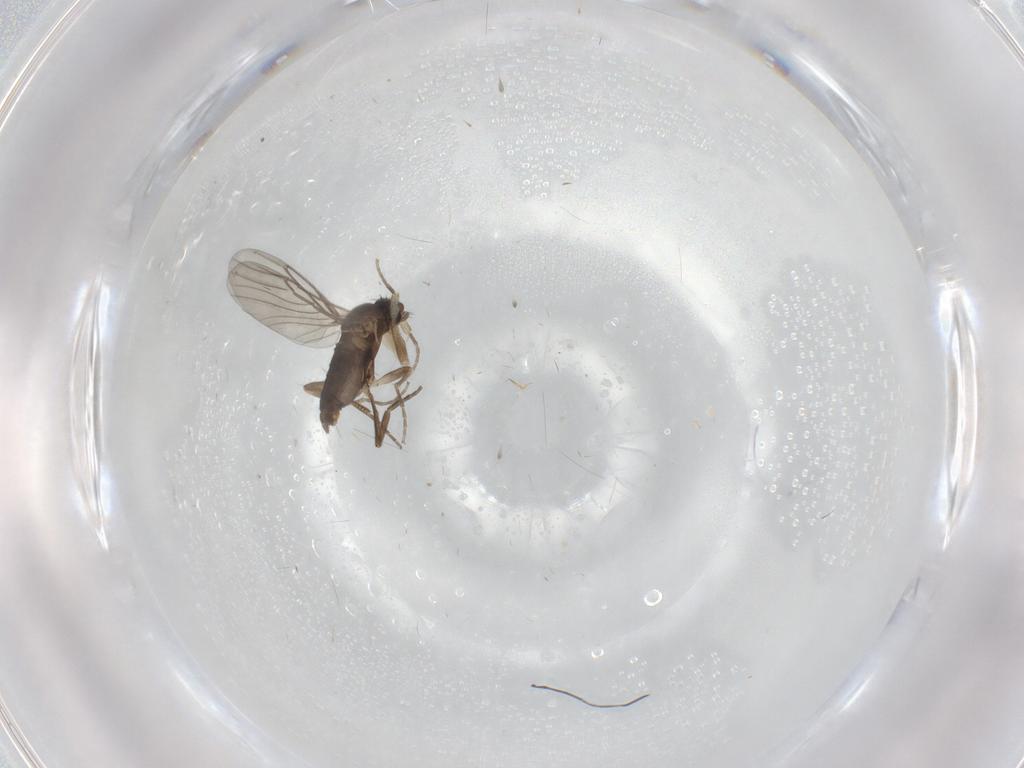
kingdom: Animalia
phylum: Arthropoda
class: Insecta
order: Diptera
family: Phoridae
